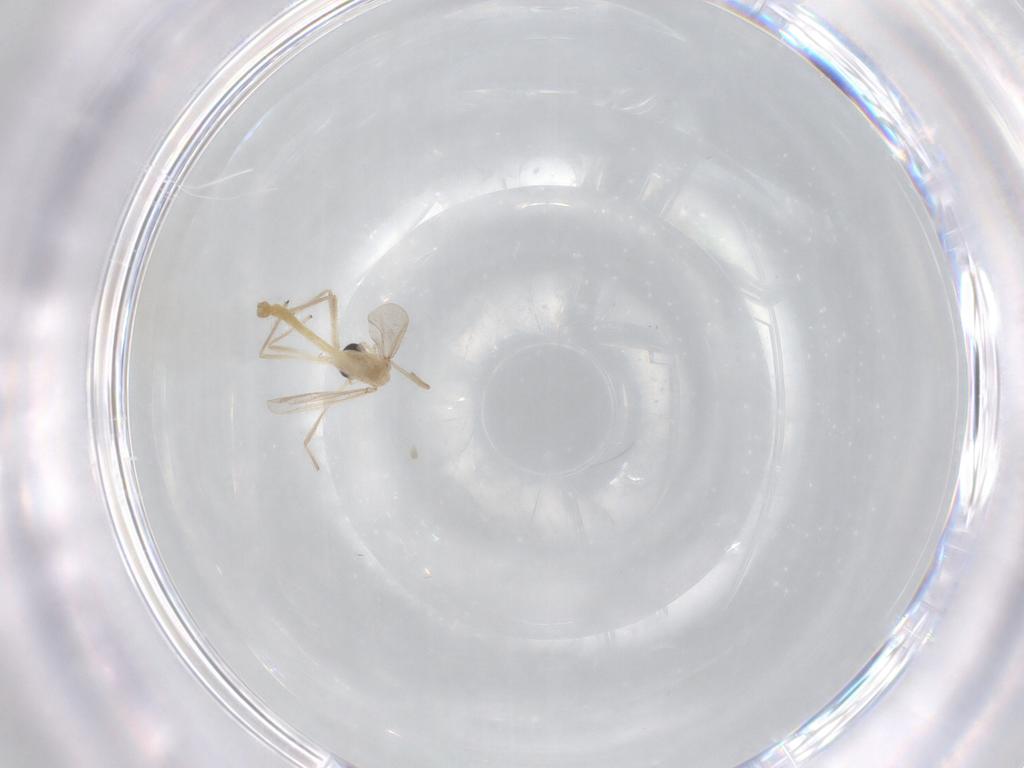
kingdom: Animalia
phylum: Arthropoda
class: Insecta
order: Diptera
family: Chironomidae
